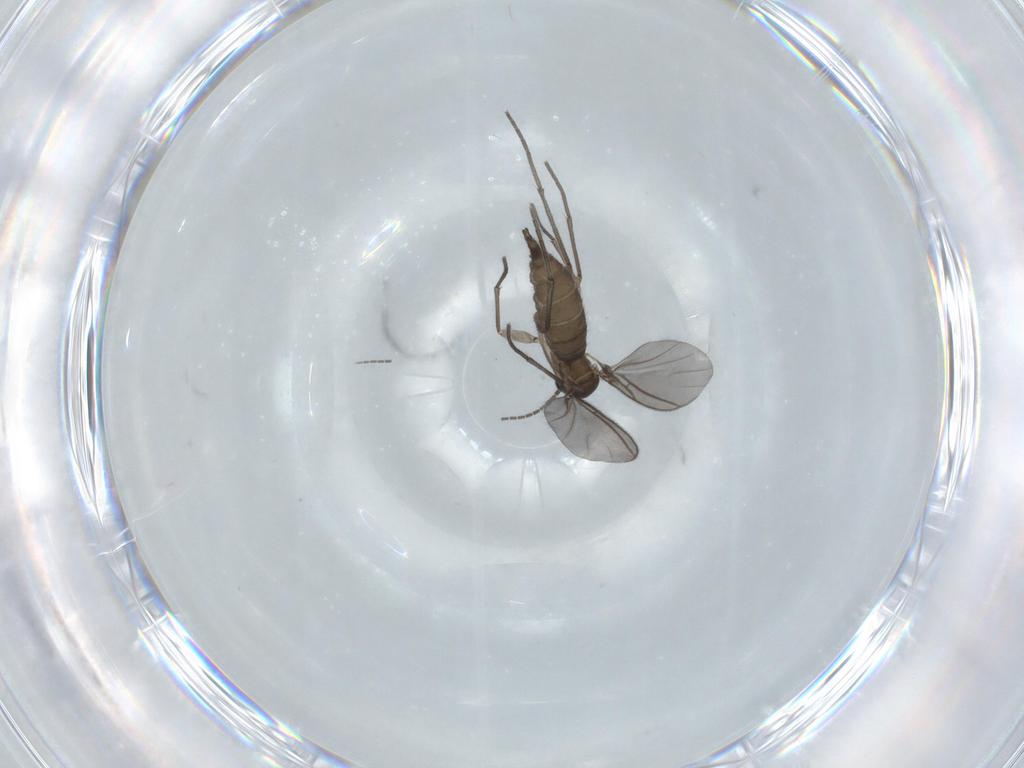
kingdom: Animalia
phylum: Arthropoda
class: Insecta
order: Diptera
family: Sciaridae
